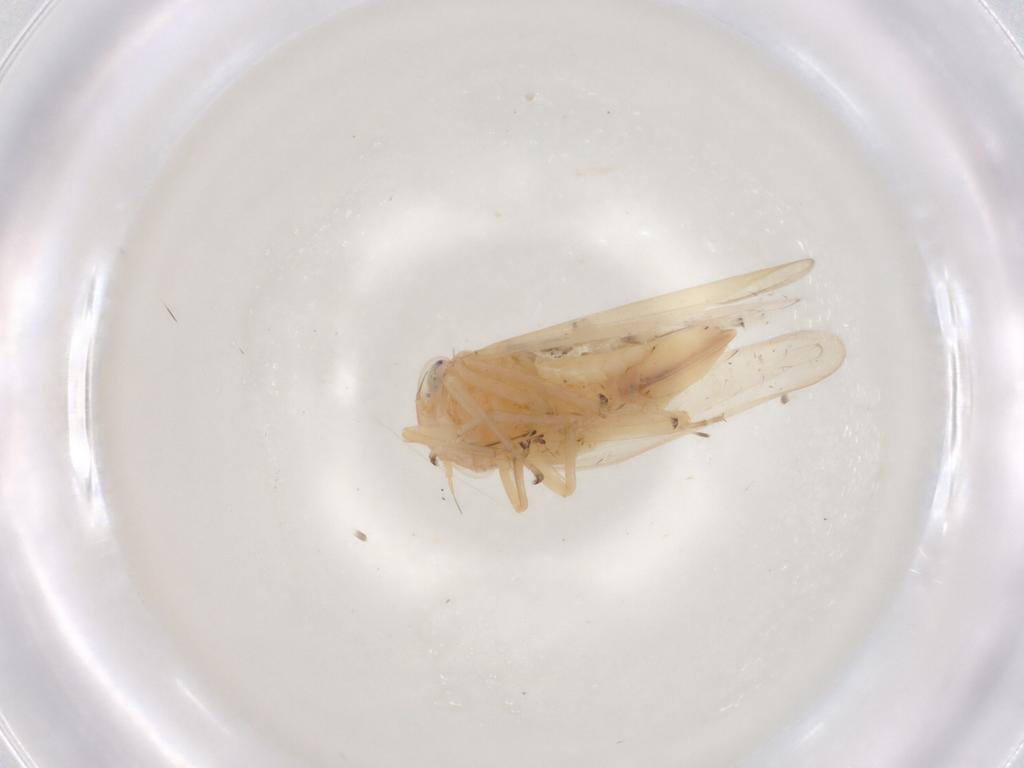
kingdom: Animalia
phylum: Arthropoda
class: Insecta
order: Hemiptera
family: Cicadellidae
